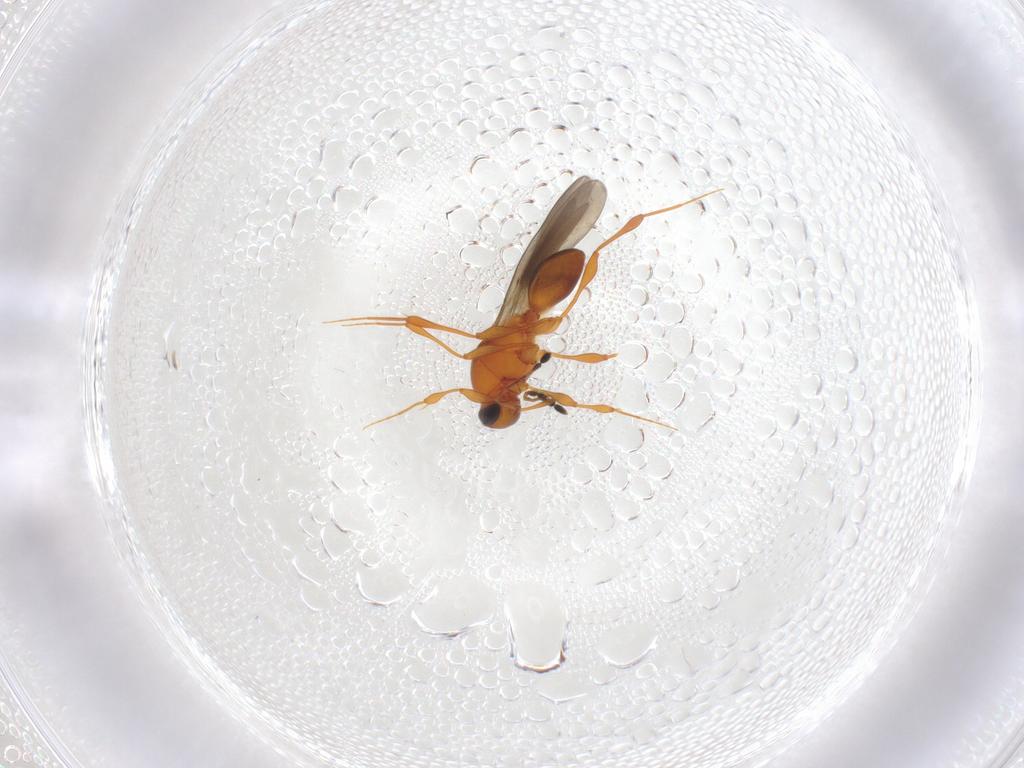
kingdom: Animalia
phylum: Arthropoda
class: Insecta
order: Hymenoptera
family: Platygastridae
